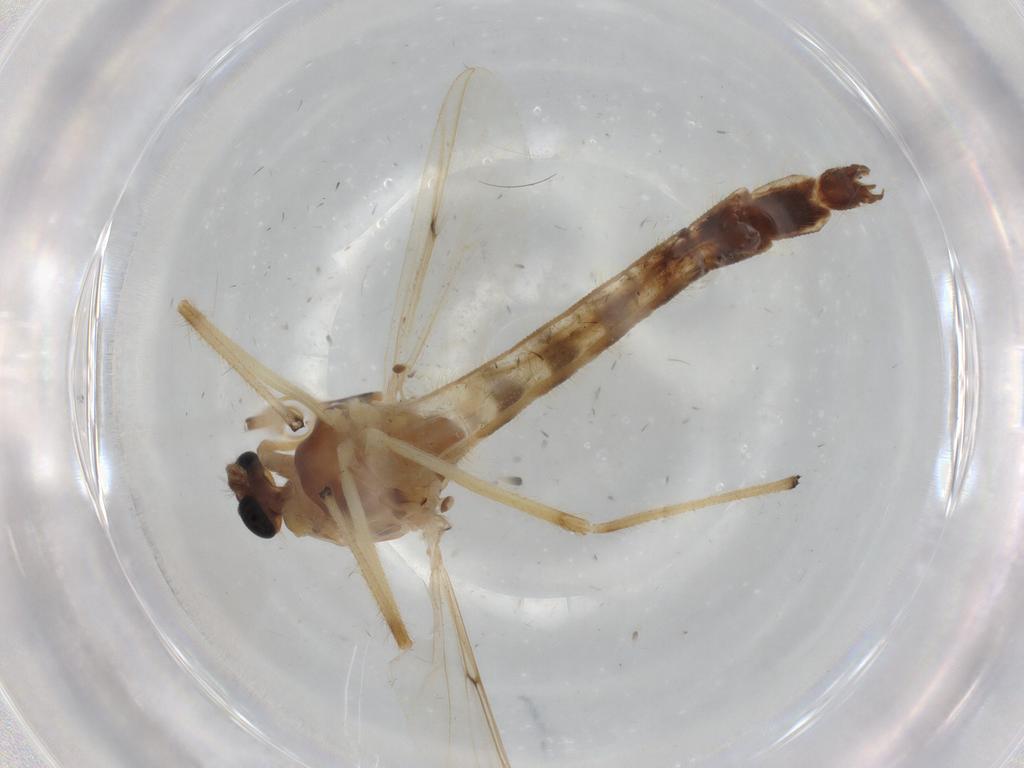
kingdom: Animalia
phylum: Arthropoda
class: Insecta
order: Diptera
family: Chironomidae
